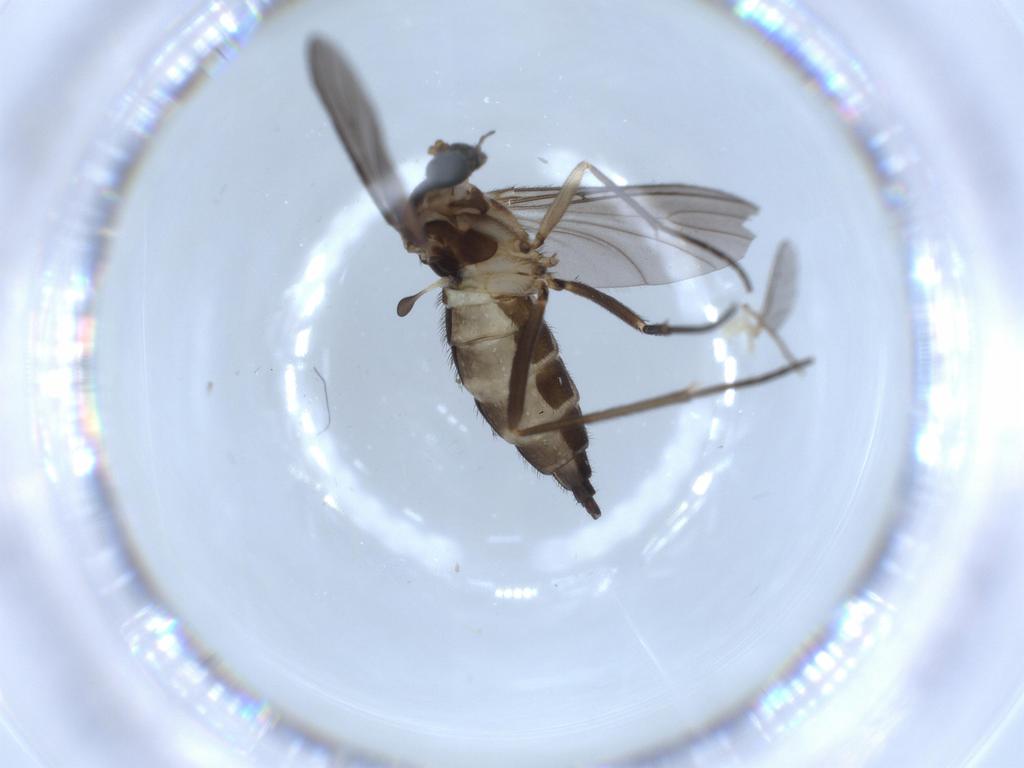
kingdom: Animalia
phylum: Arthropoda
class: Insecta
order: Diptera
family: Sciaridae
